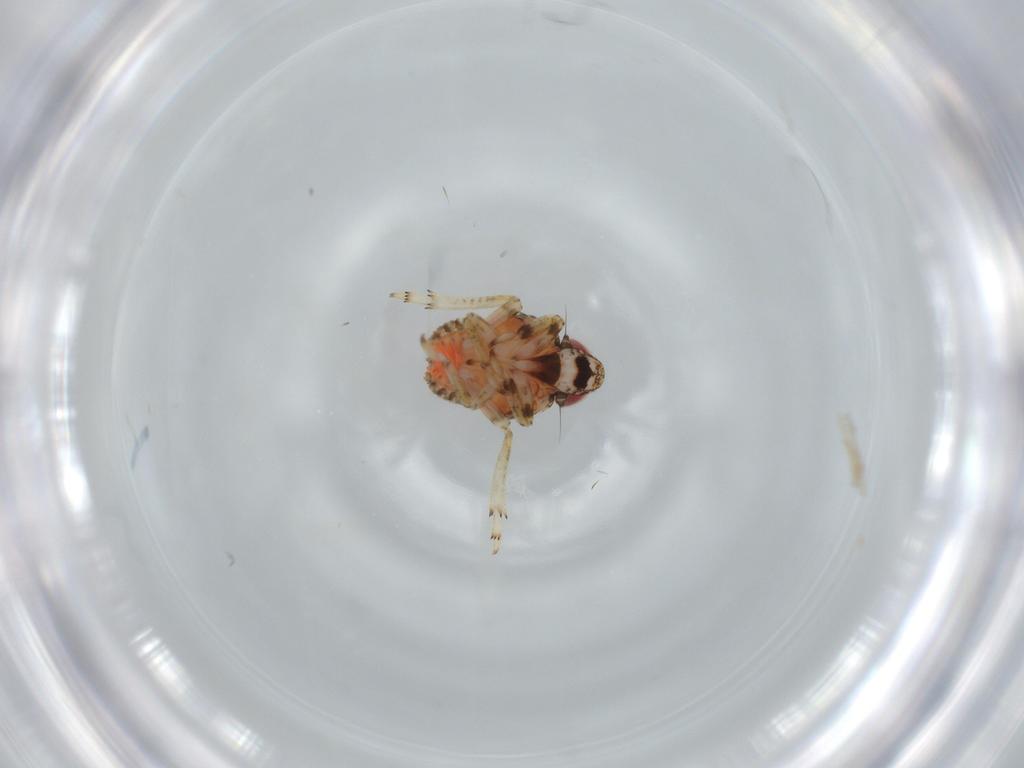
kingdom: Animalia
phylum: Arthropoda
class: Insecta
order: Hemiptera
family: Issidae
